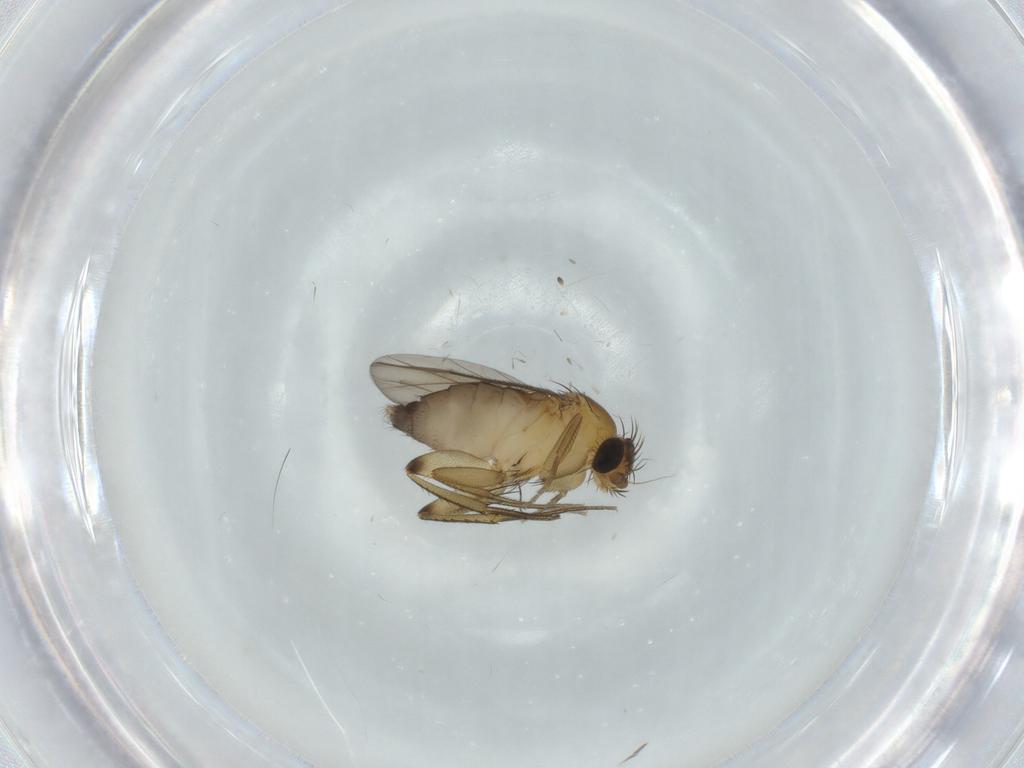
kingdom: Animalia
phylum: Arthropoda
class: Insecta
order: Diptera
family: Phoridae
